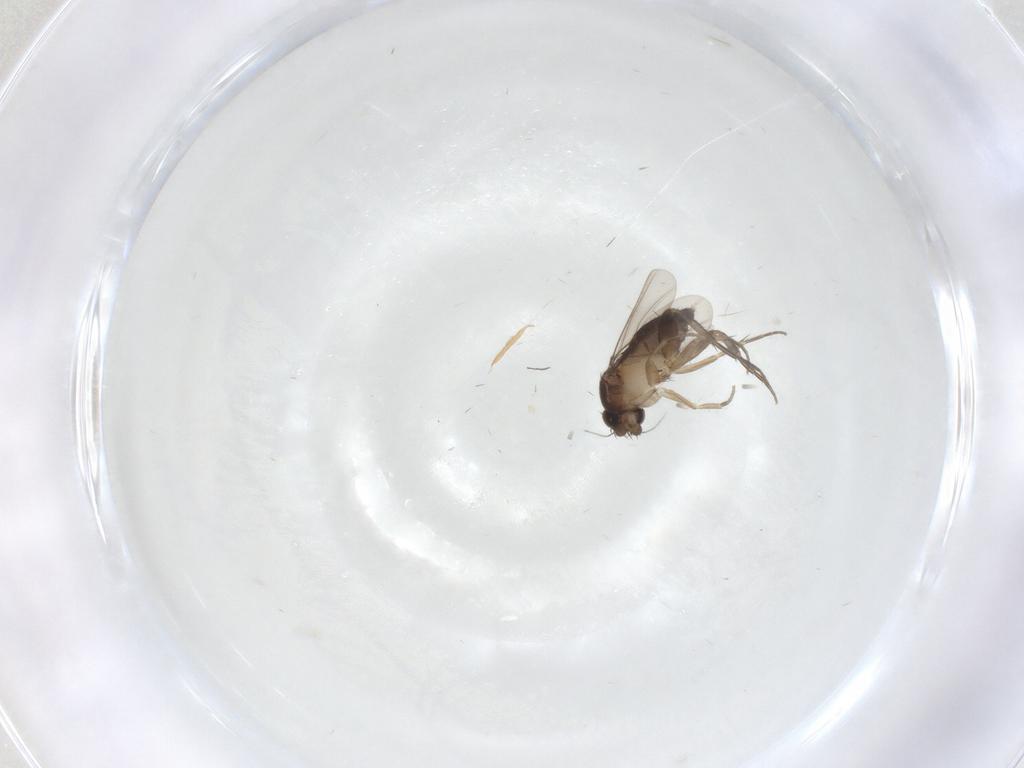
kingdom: Animalia
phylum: Arthropoda
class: Insecta
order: Diptera
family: Phoridae
